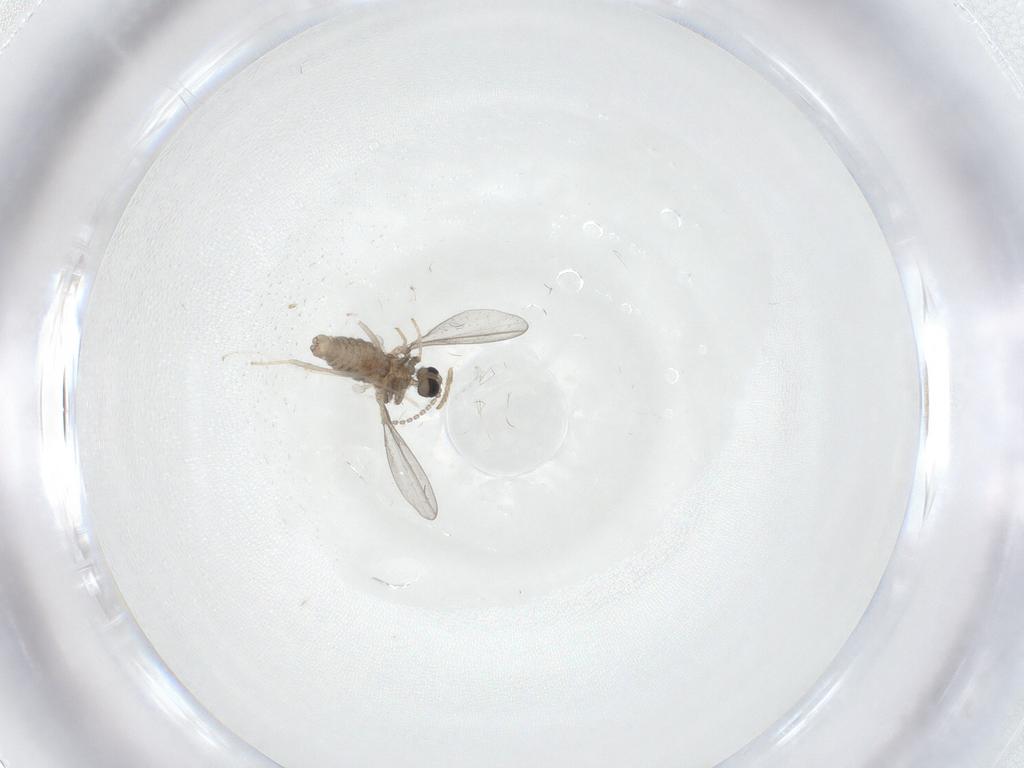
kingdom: Animalia
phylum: Arthropoda
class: Insecta
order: Diptera
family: Cecidomyiidae
